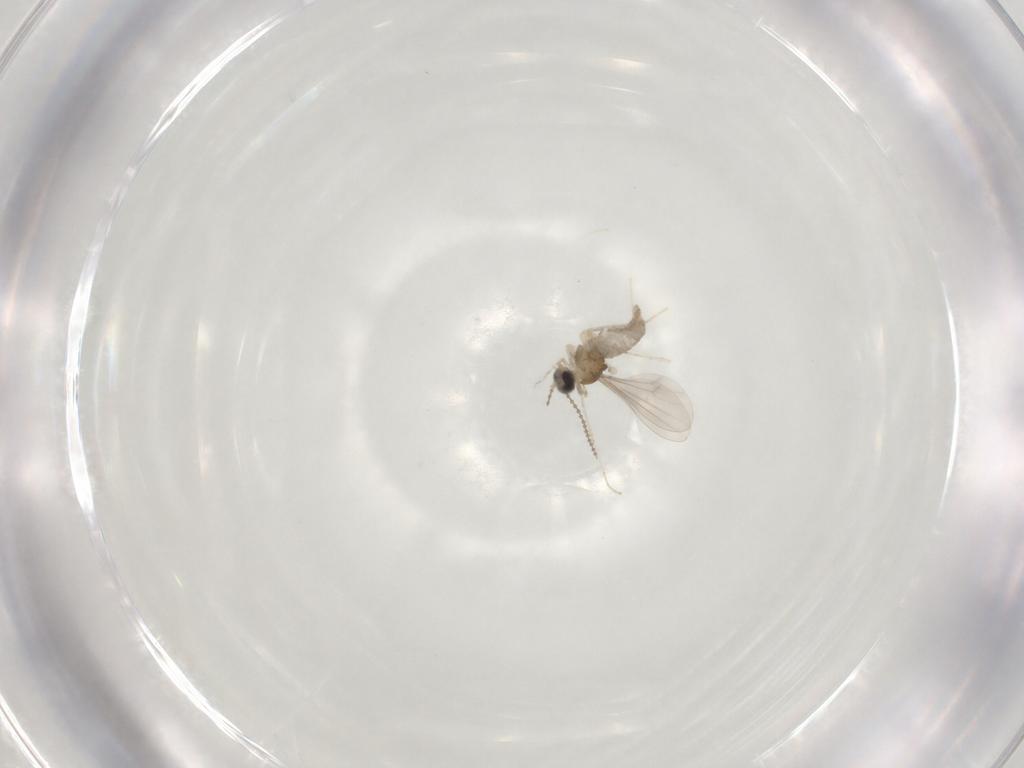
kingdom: Animalia
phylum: Arthropoda
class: Insecta
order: Diptera
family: Cecidomyiidae
